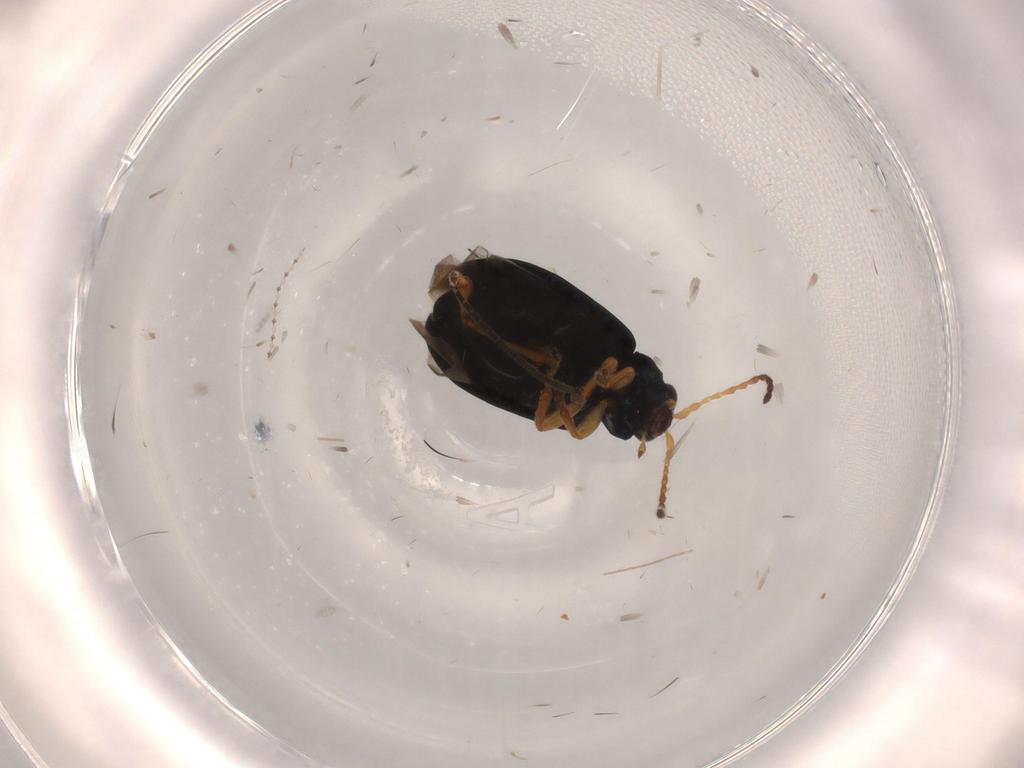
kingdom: Animalia
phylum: Arthropoda
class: Insecta
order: Coleoptera
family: Chrysomelidae
